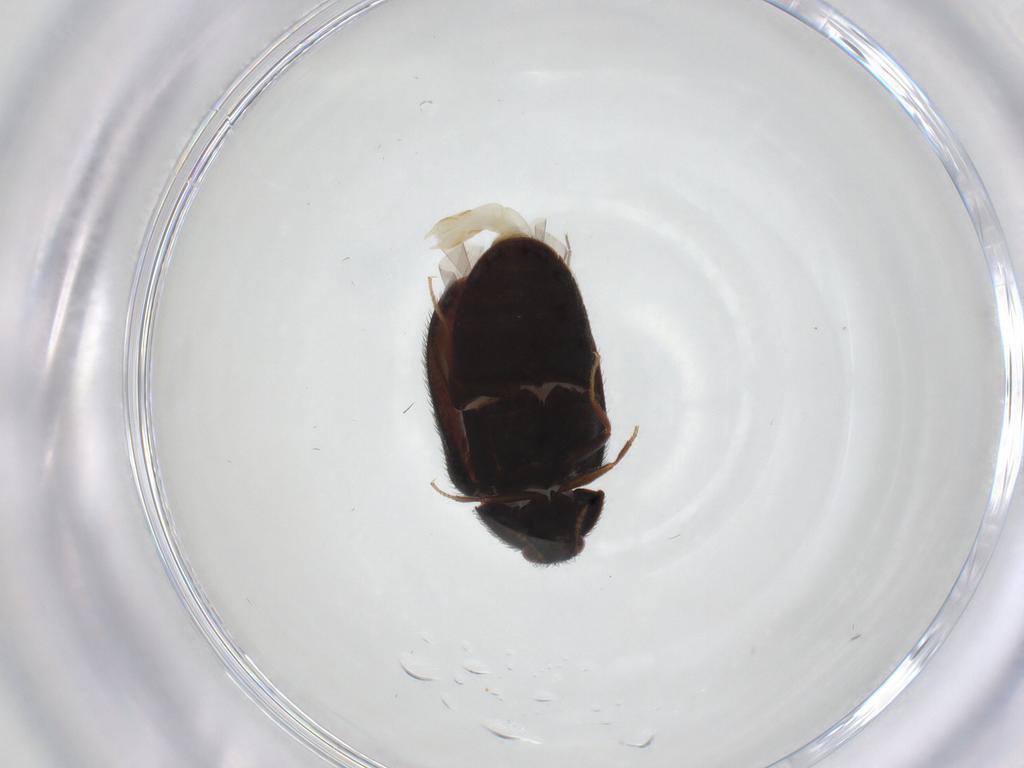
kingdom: Animalia
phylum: Arthropoda
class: Insecta
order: Coleoptera
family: Dermestidae
